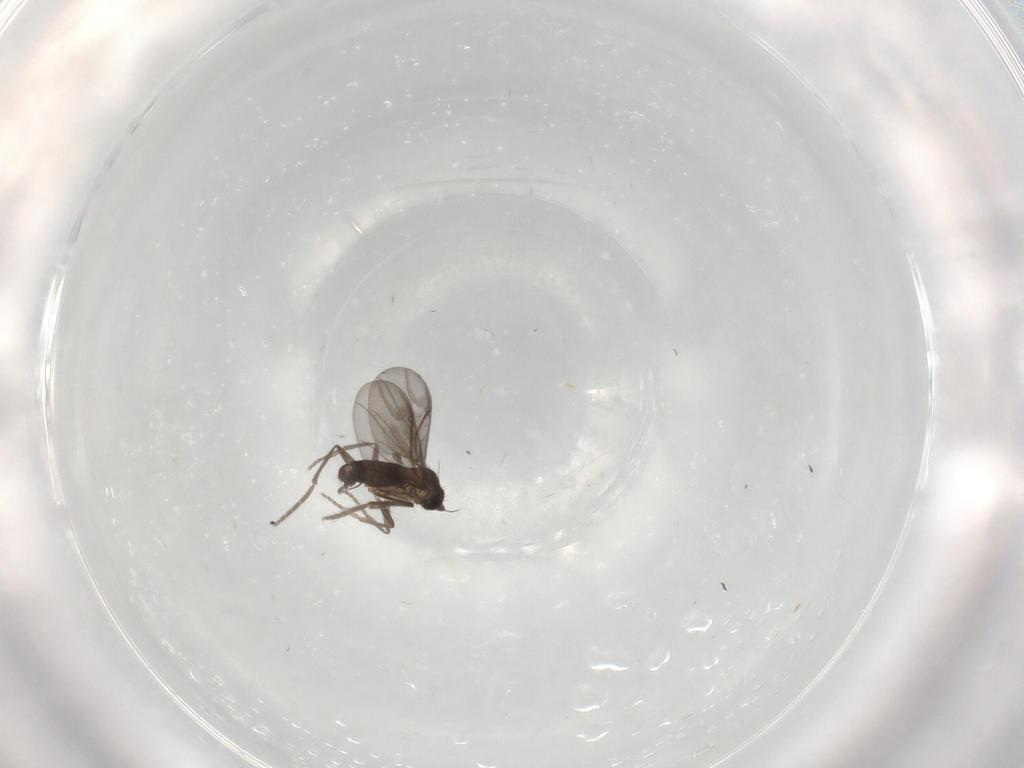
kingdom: Animalia
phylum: Arthropoda
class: Insecta
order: Diptera
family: Phoridae
